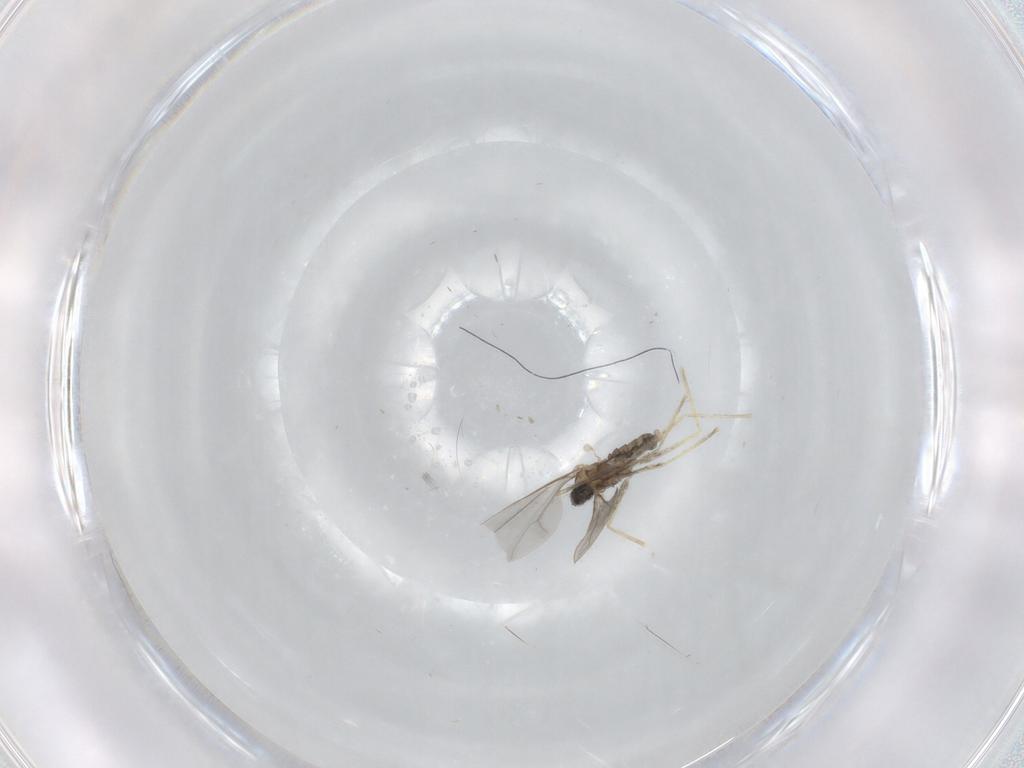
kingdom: Animalia
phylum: Arthropoda
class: Insecta
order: Diptera
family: Cecidomyiidae
